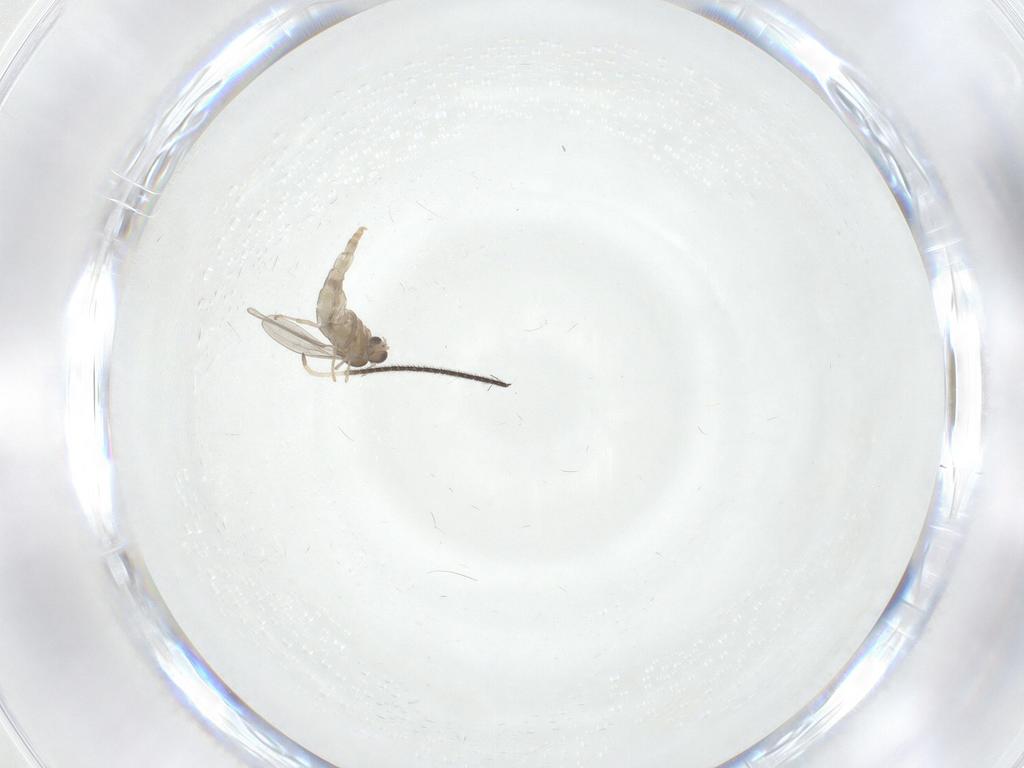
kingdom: Animalia
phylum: Arthropoda
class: Insecta
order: Diptera
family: Cecidomyiidae
